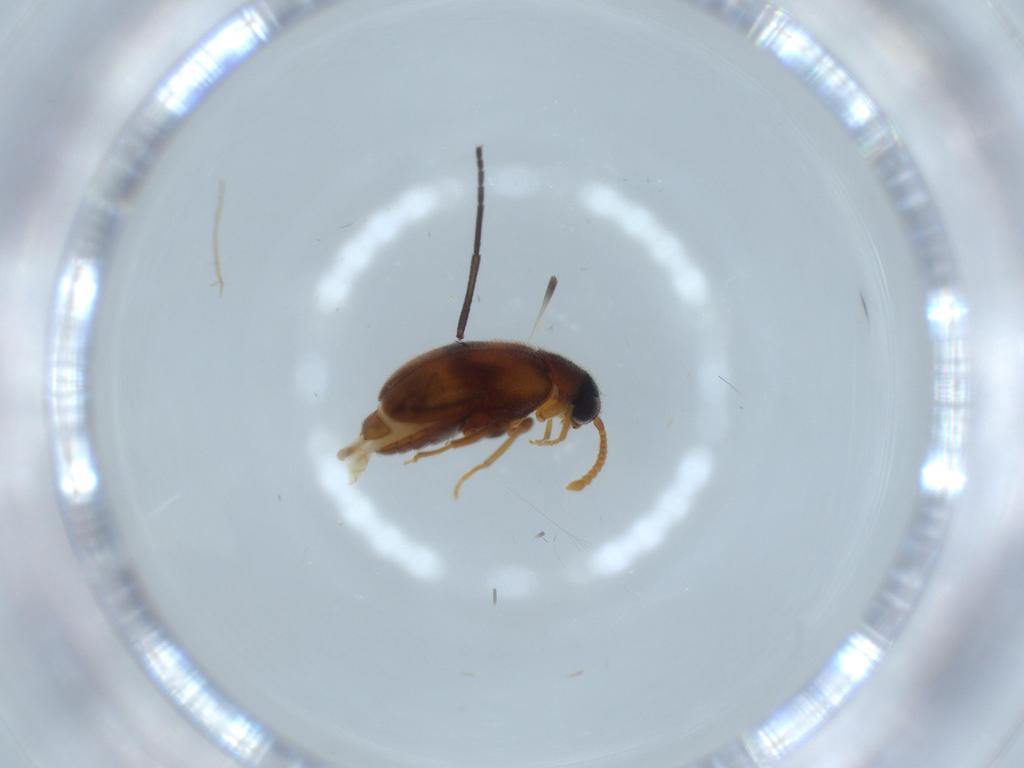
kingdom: Animalia
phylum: Arthropoda
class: Insecta
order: Coleoptera
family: Aderidae
